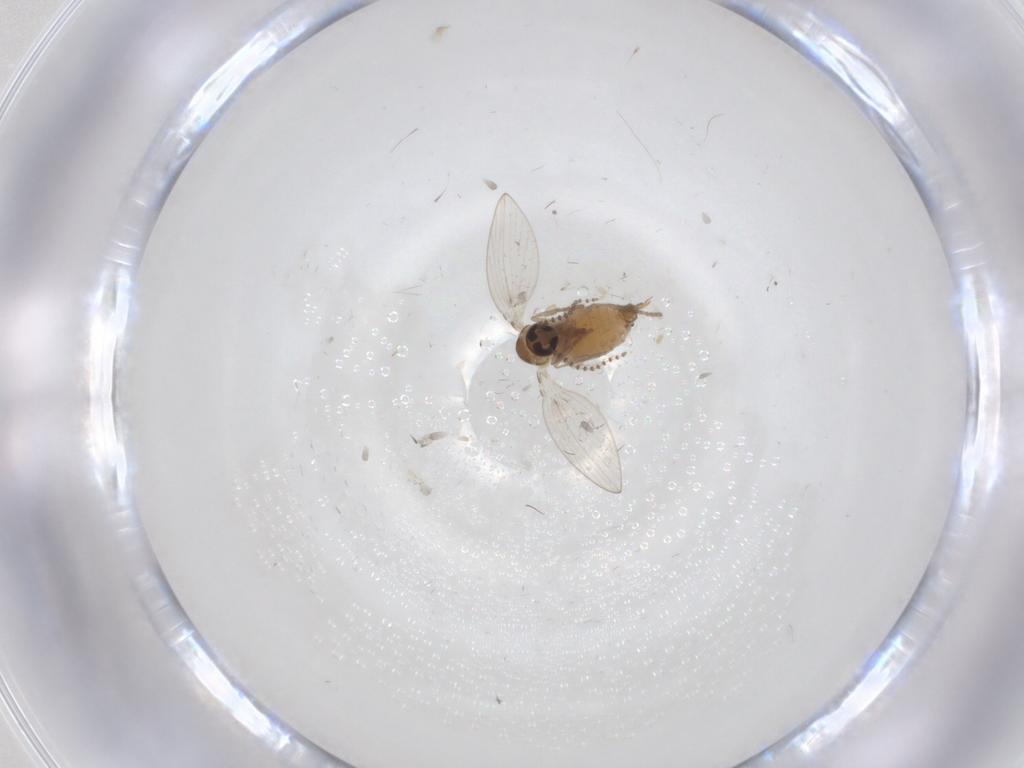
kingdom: Animalia
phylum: Arthropoda
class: Insecta
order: Diptera
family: Psychodidae
